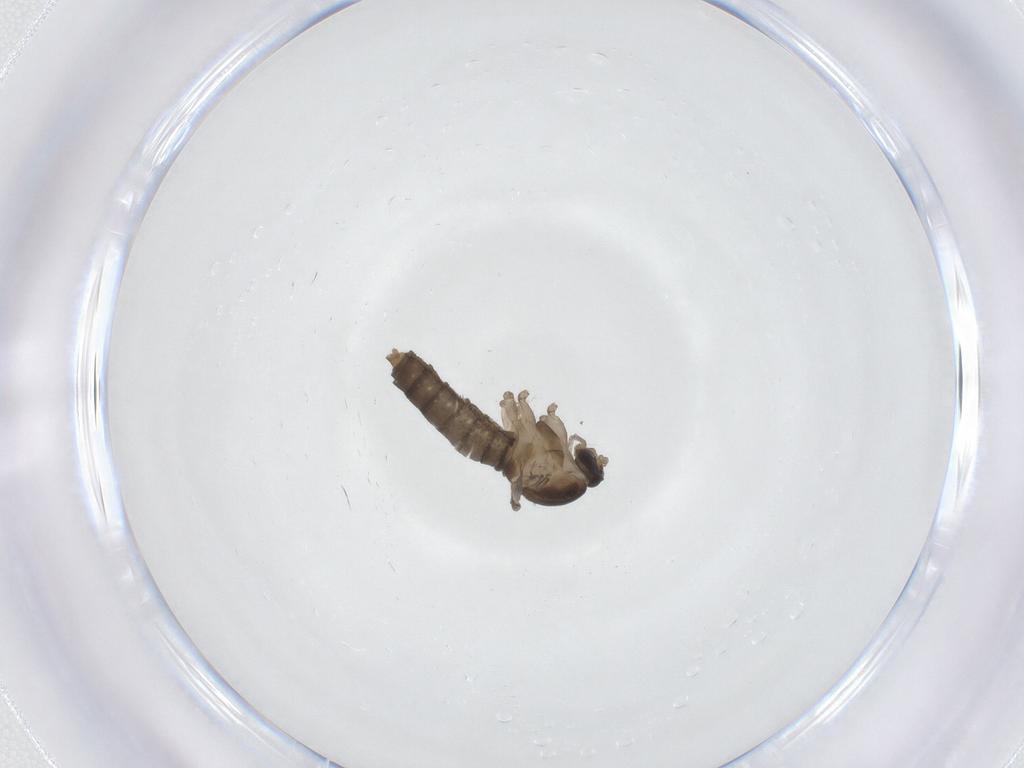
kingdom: Animalia
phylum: Arthropoda
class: Insecta
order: Diptera
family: Cecidomyiidae
